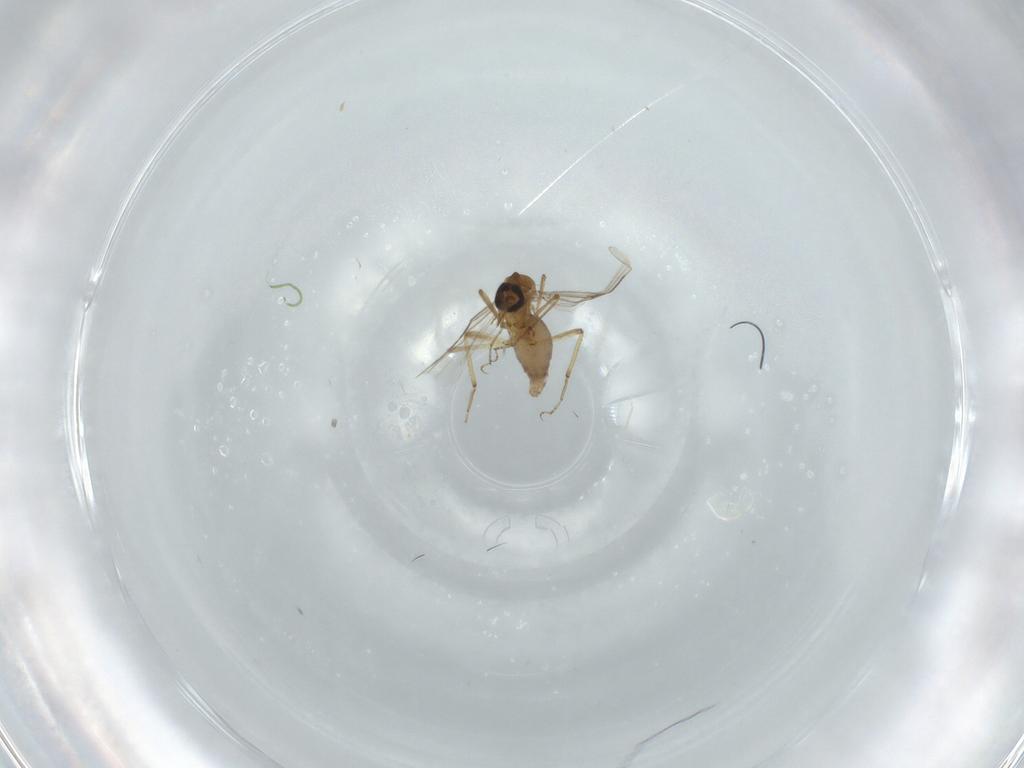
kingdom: Animalia
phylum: Arthropoda
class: Insecta
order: Diptera
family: Ceratopogonidae
